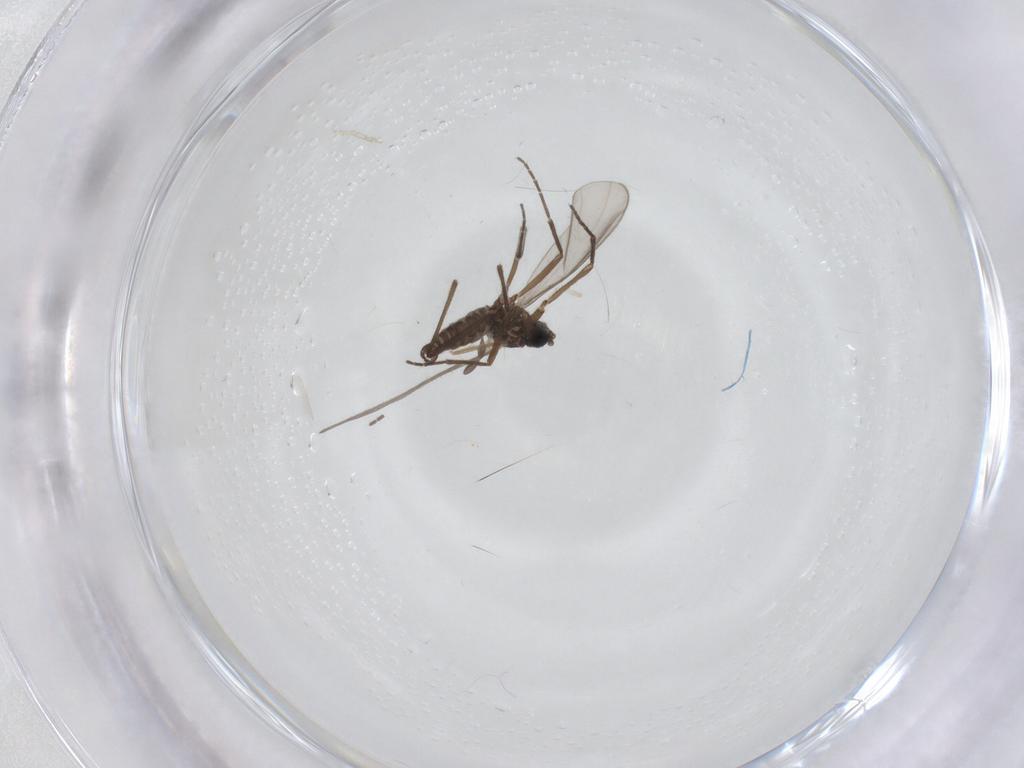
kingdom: Animalia
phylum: Arthropoda
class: Insecta
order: Diptera
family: Sciaridae
